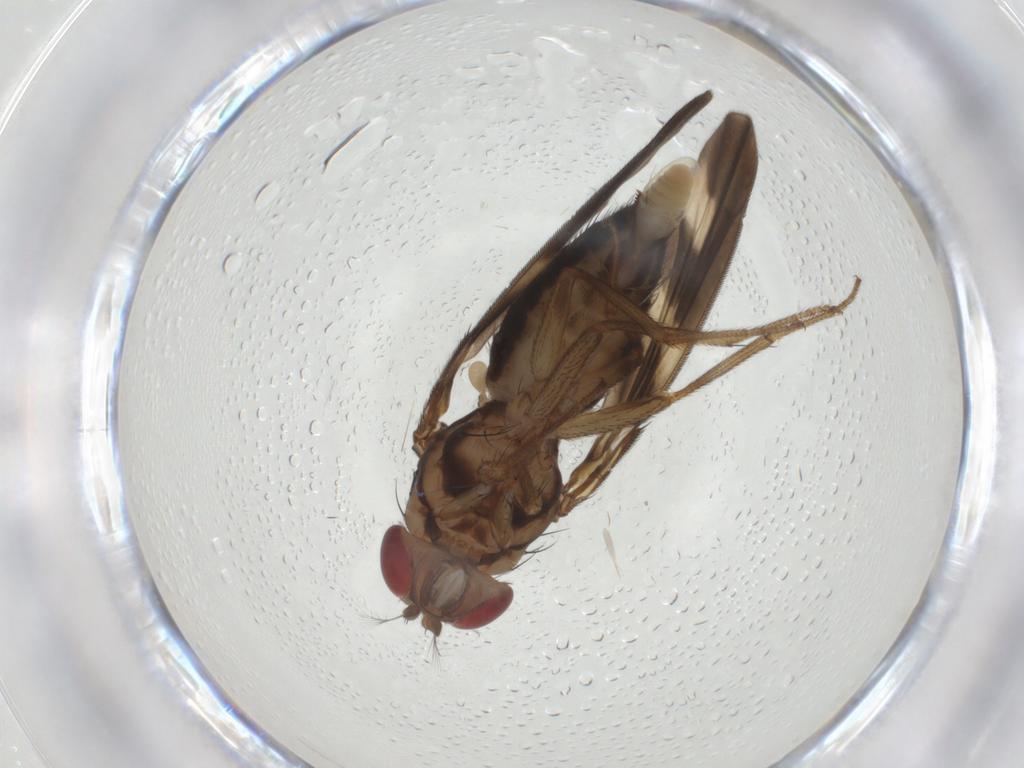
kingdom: Animalia
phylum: Arthropoda
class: Insecta
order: Diptera
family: Drosophilidae
